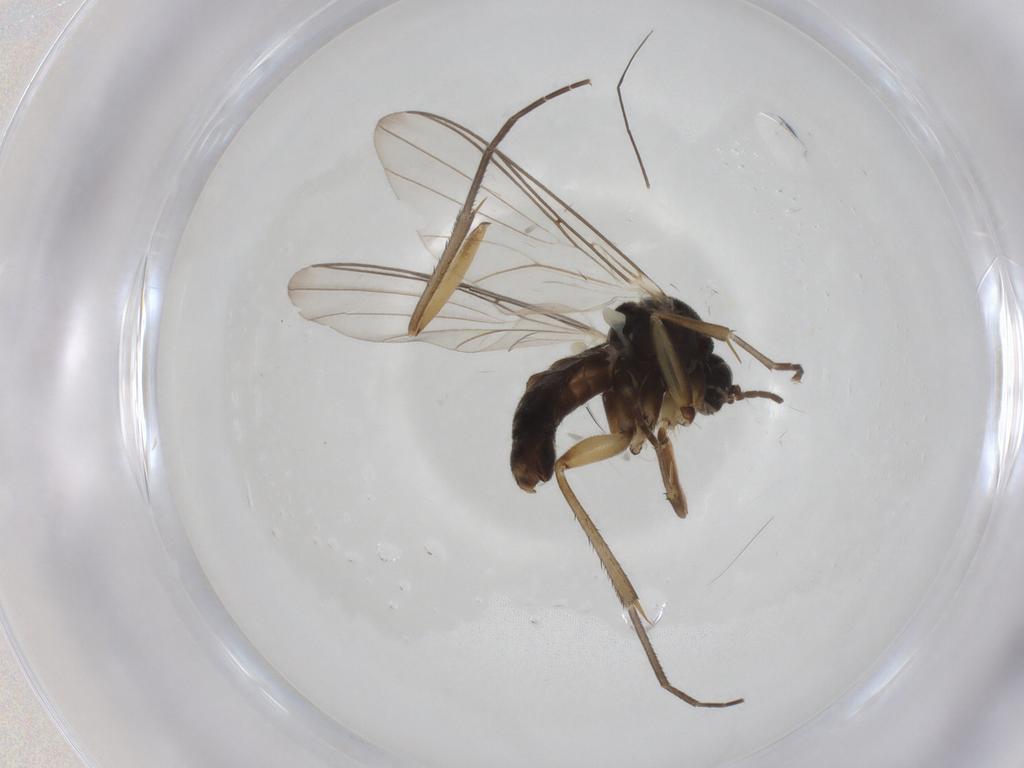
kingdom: Animalia
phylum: Arthropoda
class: Insecta
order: Diptera
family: Mycetophilidae
